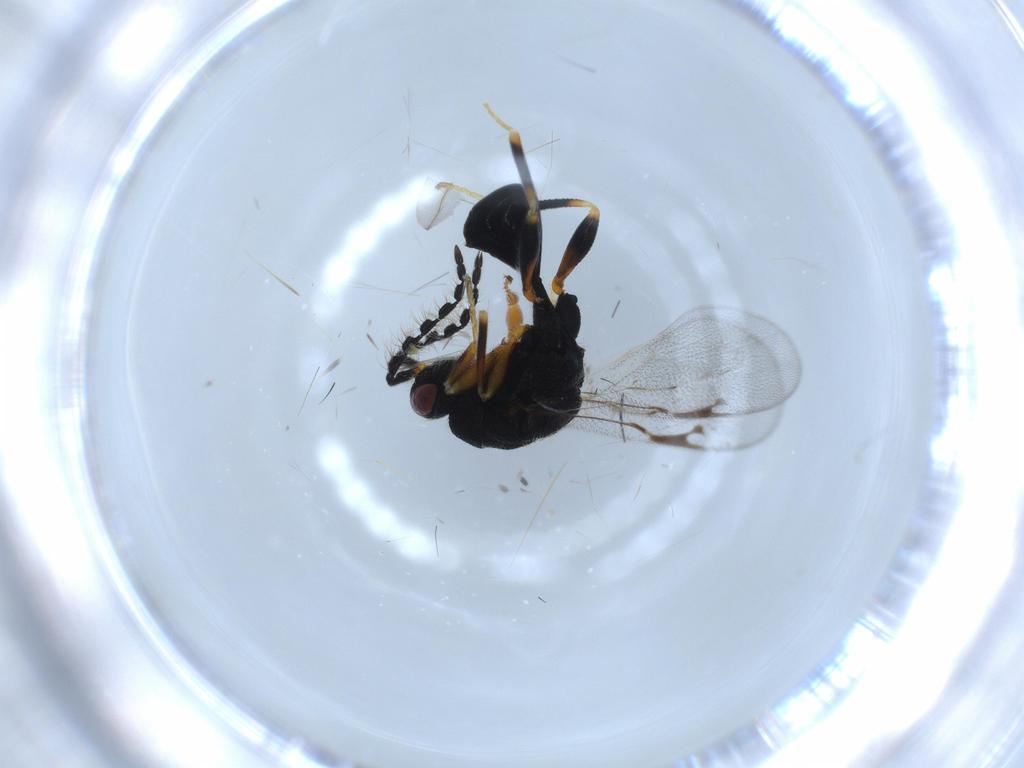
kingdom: Animalia
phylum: Arthropoda
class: Insecta
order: Hymenoptera
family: Eurytomidae
